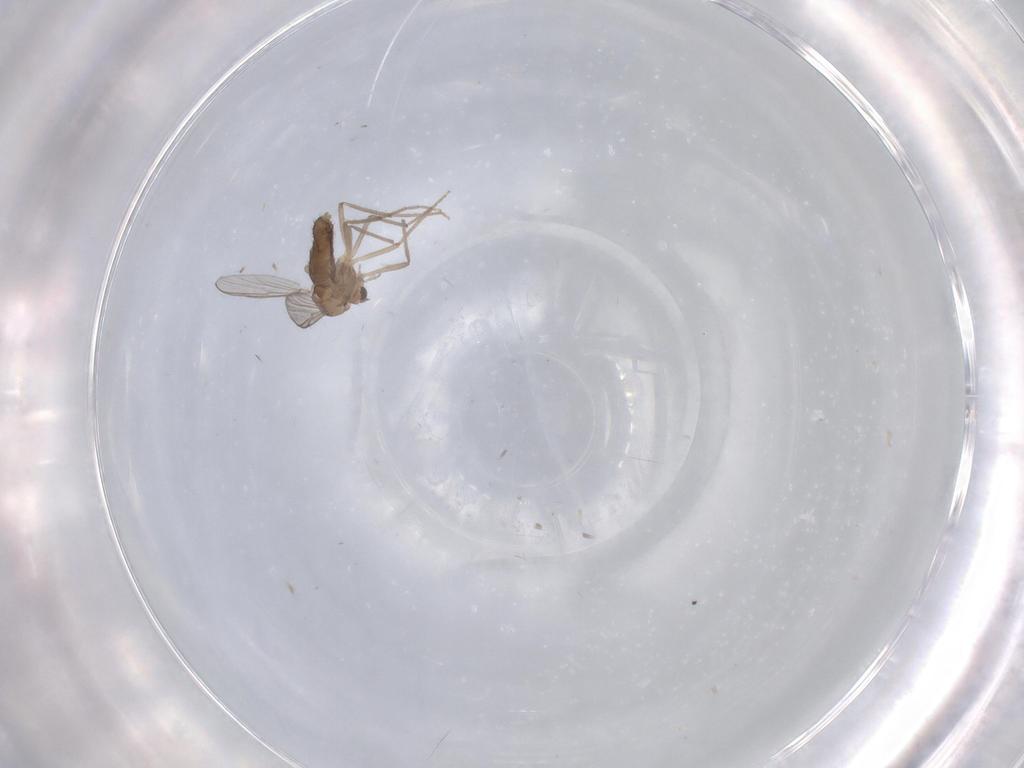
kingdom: Animalia
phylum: Arthropoda
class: Insecta
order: Diptera
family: Chironomidae
